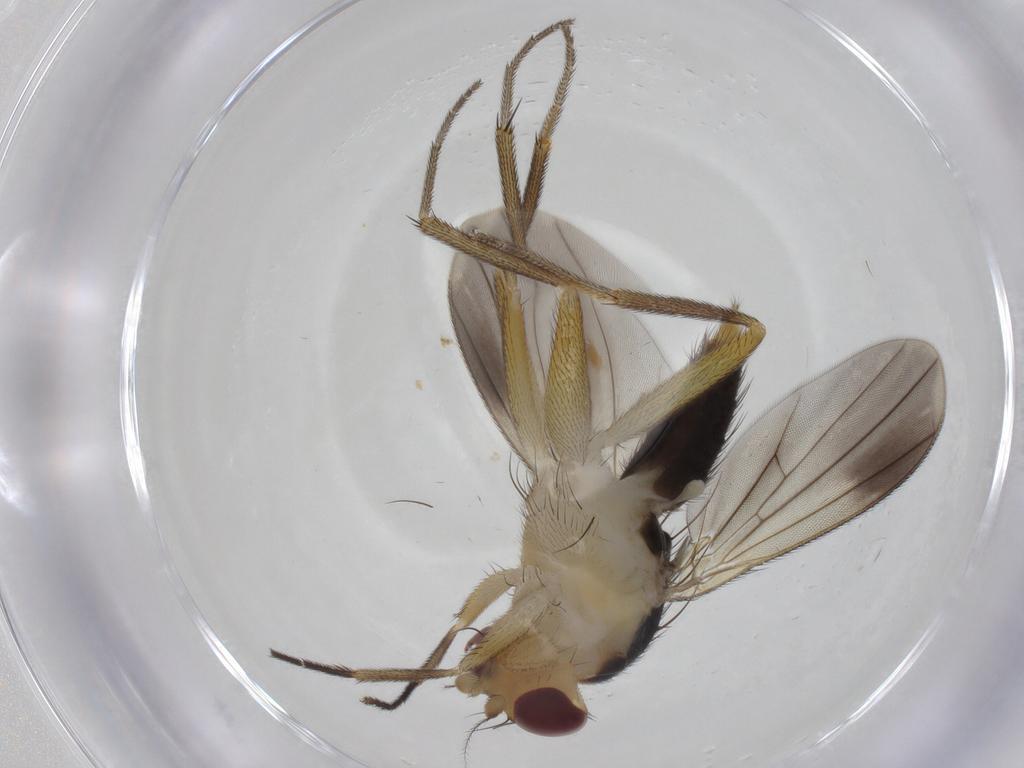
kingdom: Animalia
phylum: Arthropoda
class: Insecta
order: Diptera
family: Clusiidae
